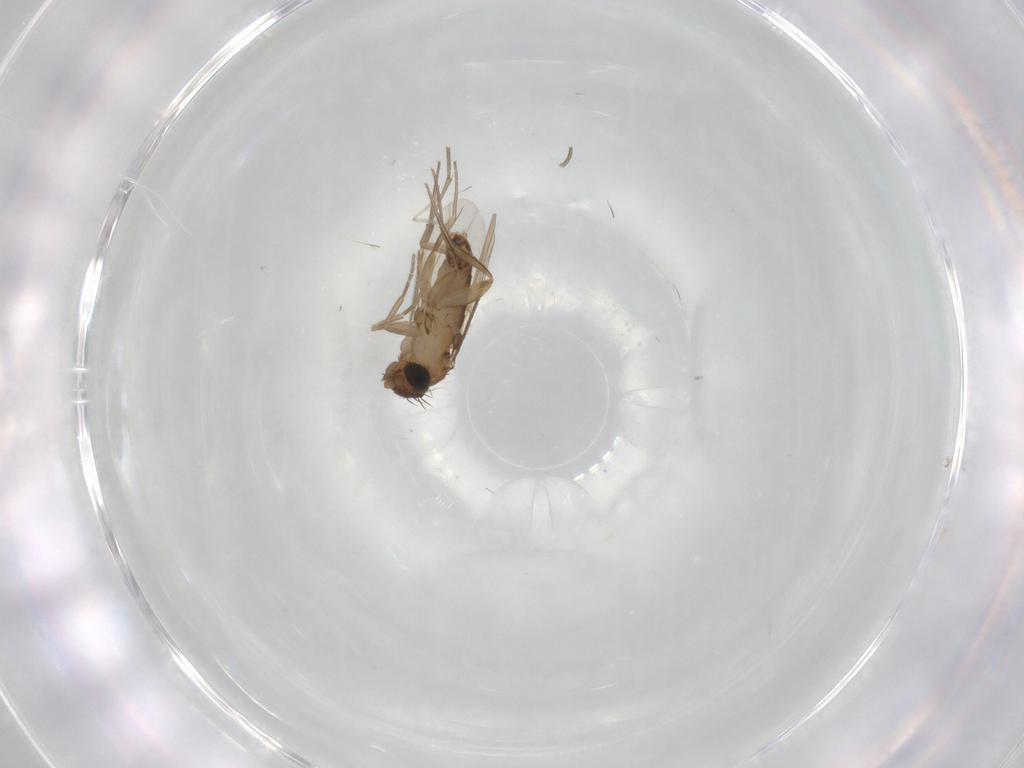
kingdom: Animalia
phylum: Arthropoda
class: Insecta
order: Diptera
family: Phoridae
